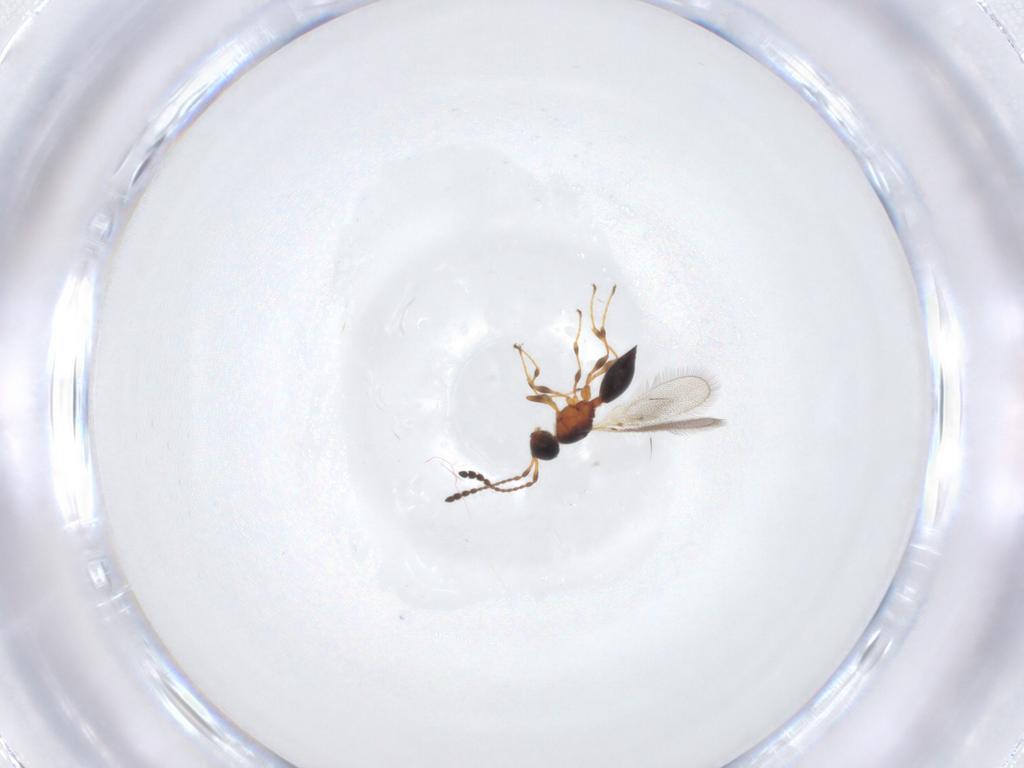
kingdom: Animalia
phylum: Arthropoda
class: Insecta
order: Hymenoptera
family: Diapriidae
